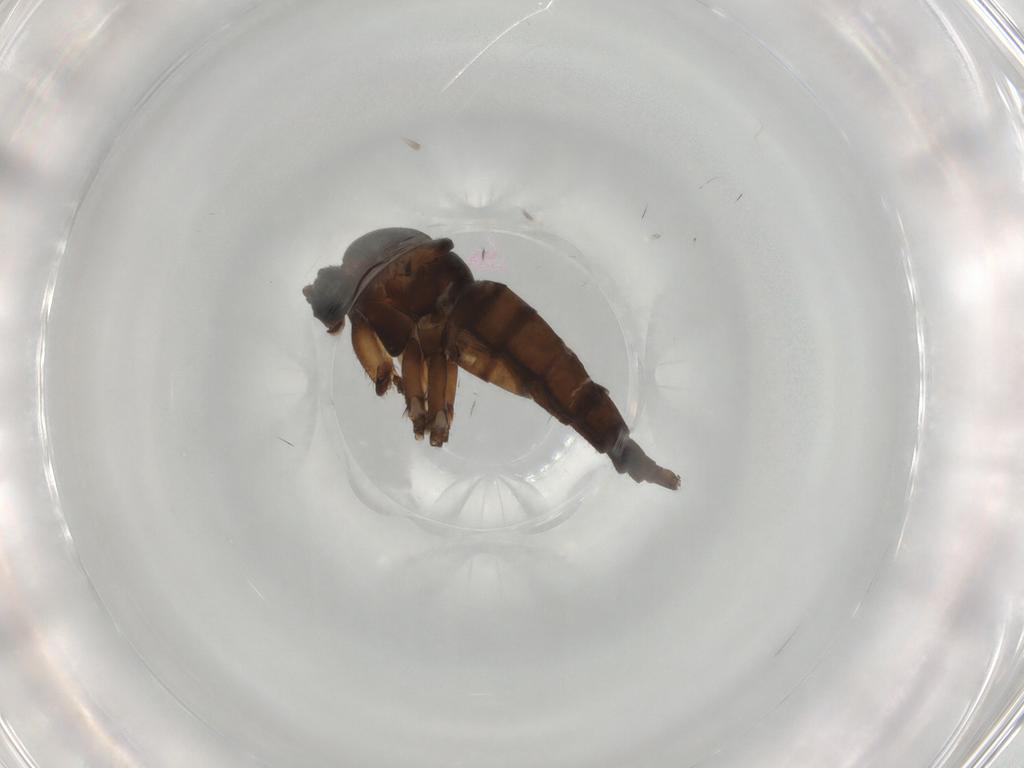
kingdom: Animalia
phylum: Arthropoda
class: Insecta
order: Diptera
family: Sciaridae
